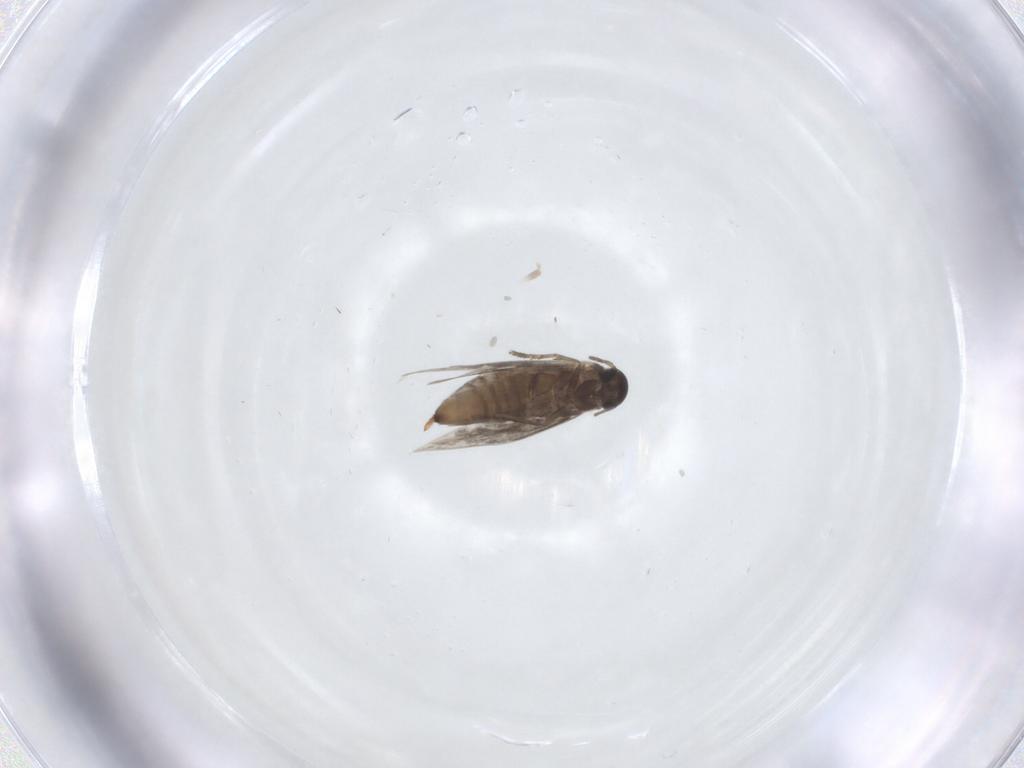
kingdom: Animalia
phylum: Arthropoda
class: Insecta
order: Lepidoptera
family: Heliozelidae
